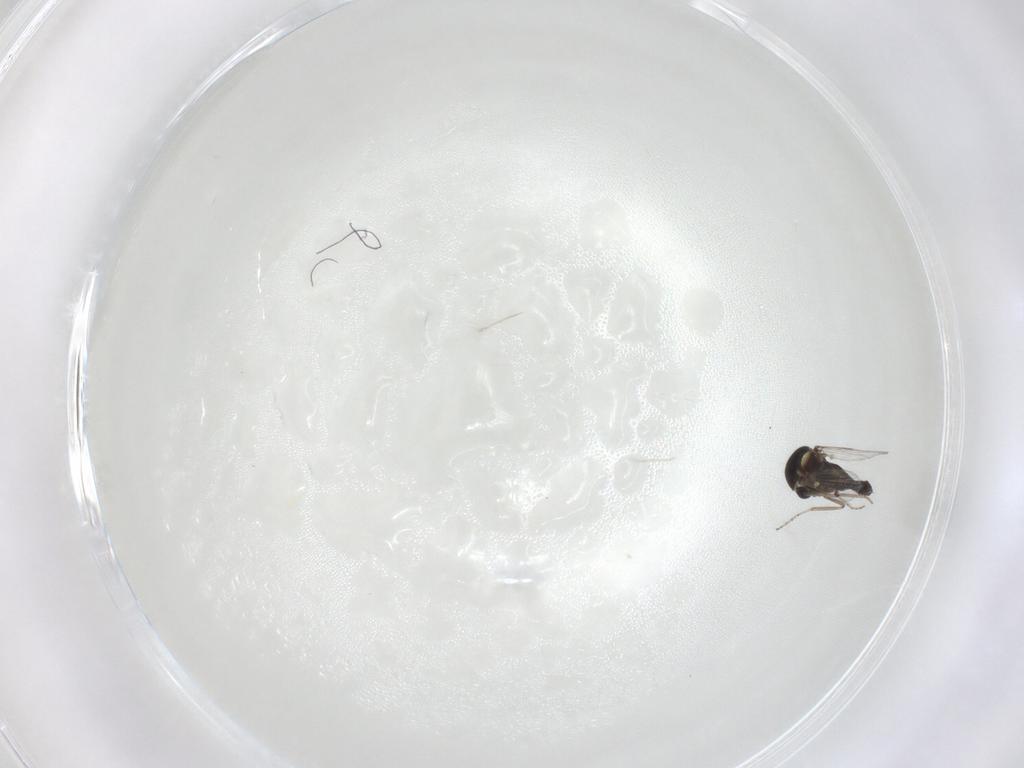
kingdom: Animalia
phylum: Arthropoda
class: Insecta
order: Diptera
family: Ceratopogonidae
